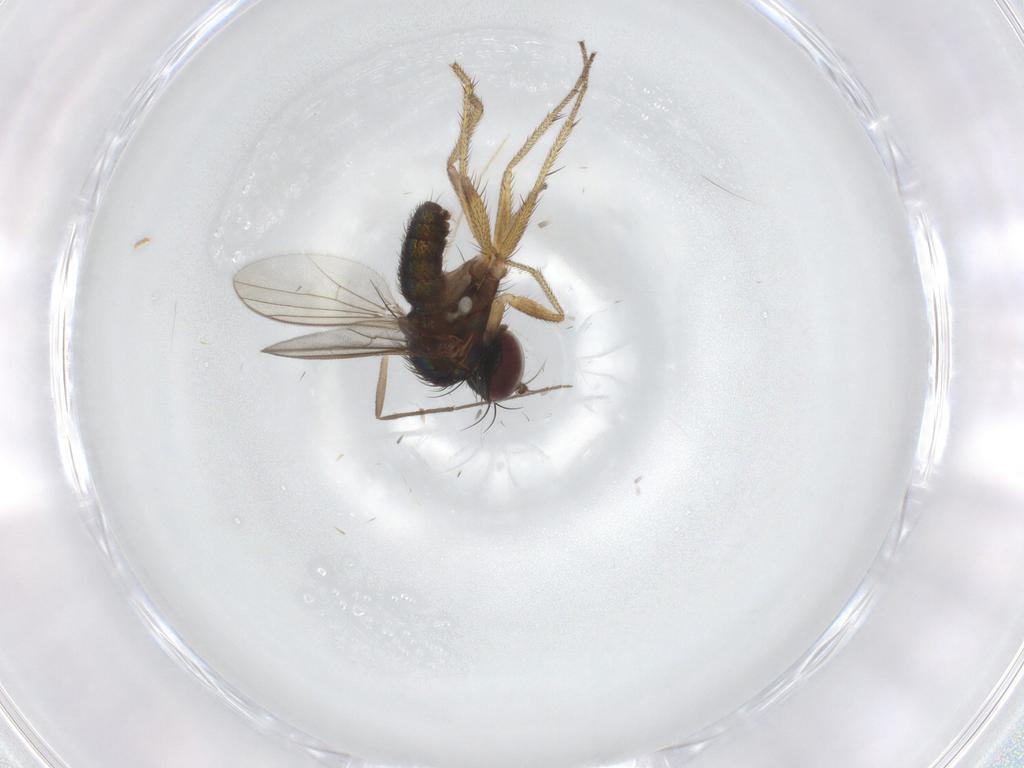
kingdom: Animalia
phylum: Arthropoda
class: Insecta
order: Diptera
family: Chironomidae
